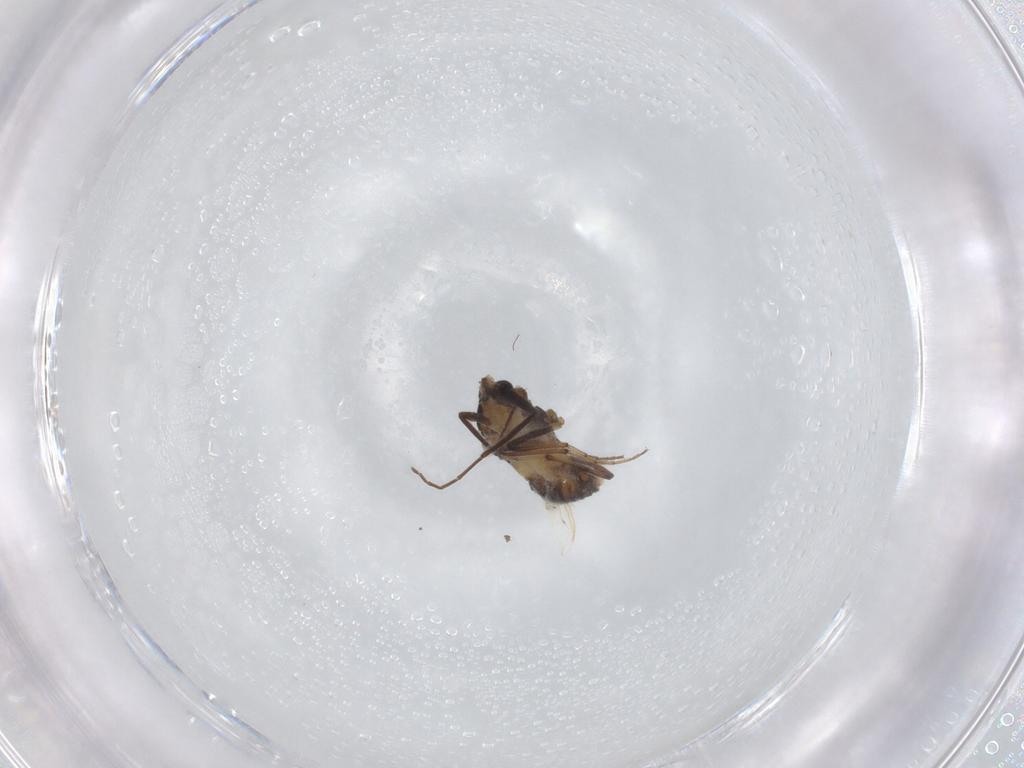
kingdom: Animalia
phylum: Arthropoda
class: Insecta
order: Diptera
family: Chironomidae
